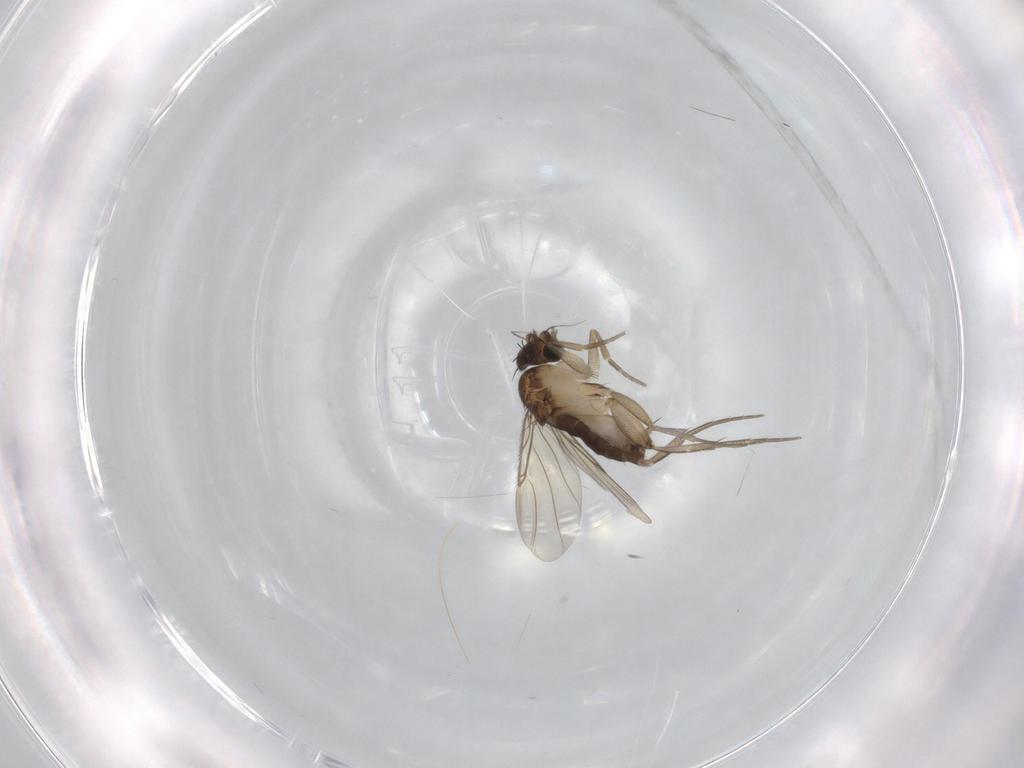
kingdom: Animalia
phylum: Arthropoda
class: Insecta
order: Diptera
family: Phoridae
